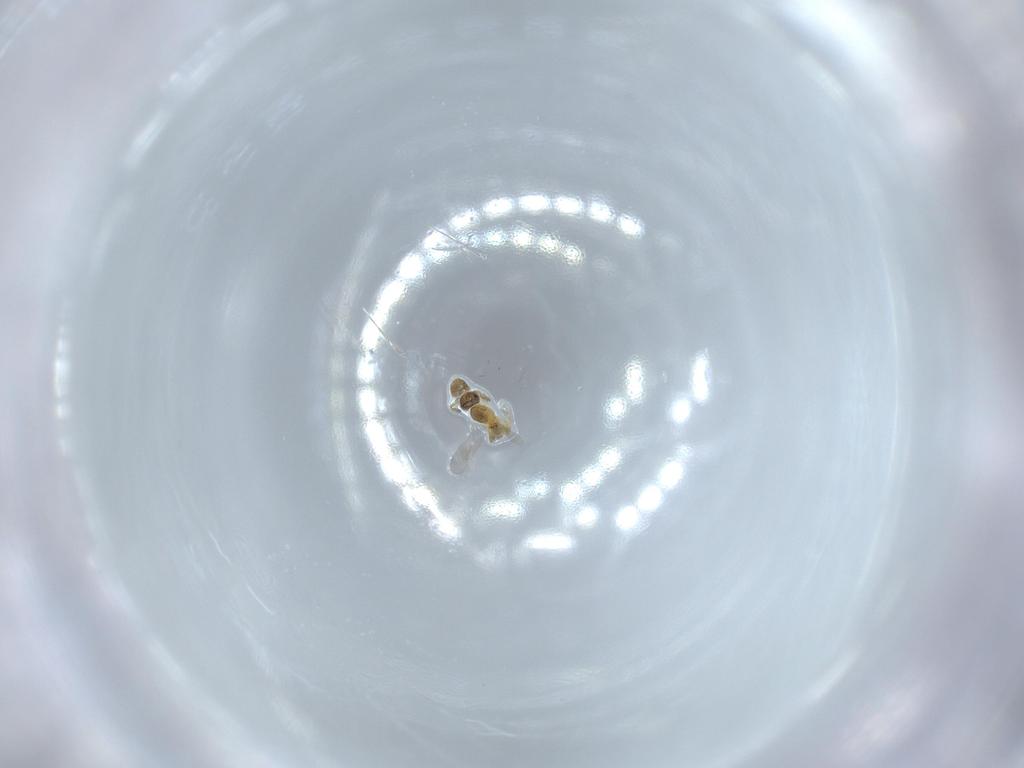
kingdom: Animalia
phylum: Arthropoda
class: Insecta
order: Hymenoptera
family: Platygastridae
